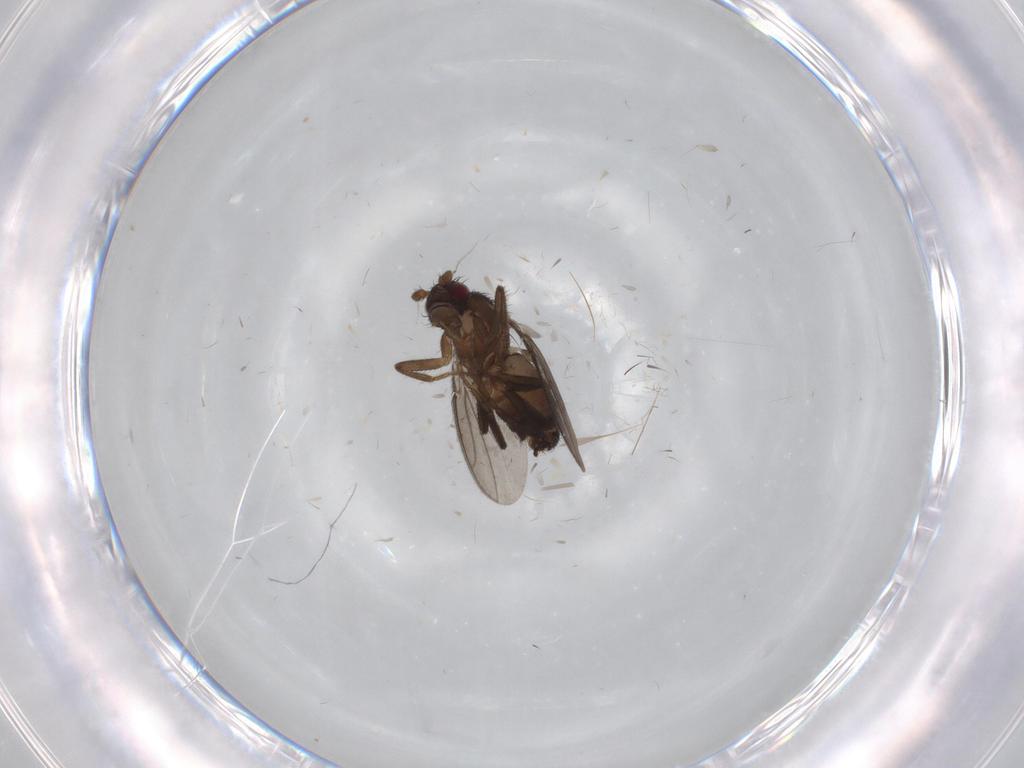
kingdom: Animalia
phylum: Arthropoda
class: Insecta
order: Diptera
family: Sphaeroceridae
